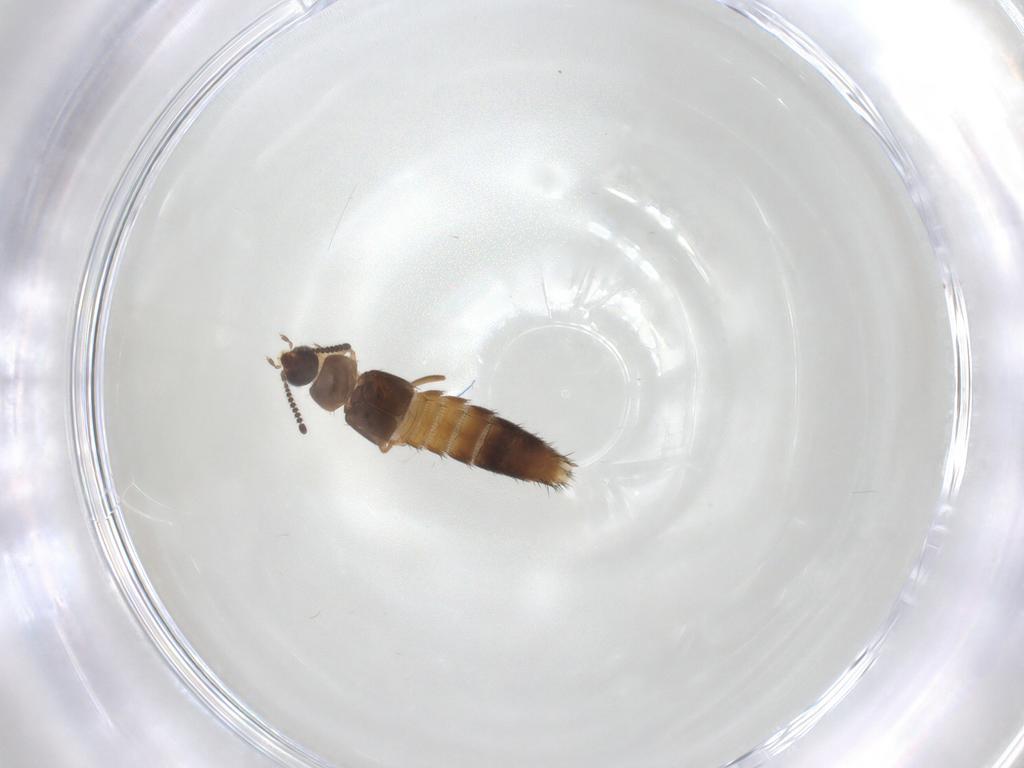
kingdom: Animalia
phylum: Arthropoda
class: Insecta
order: Coleoptera
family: Staphylinidae
